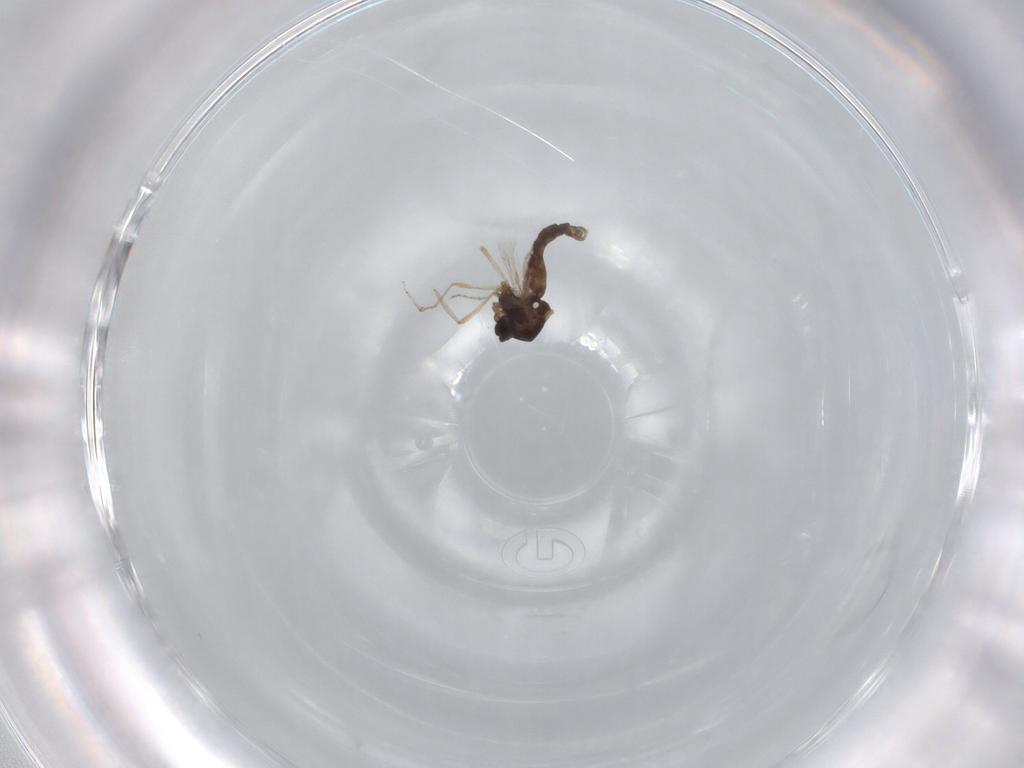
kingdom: Animalia
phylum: Arthropoda
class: Insecta
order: Diptera
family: Ceratopogonidae
